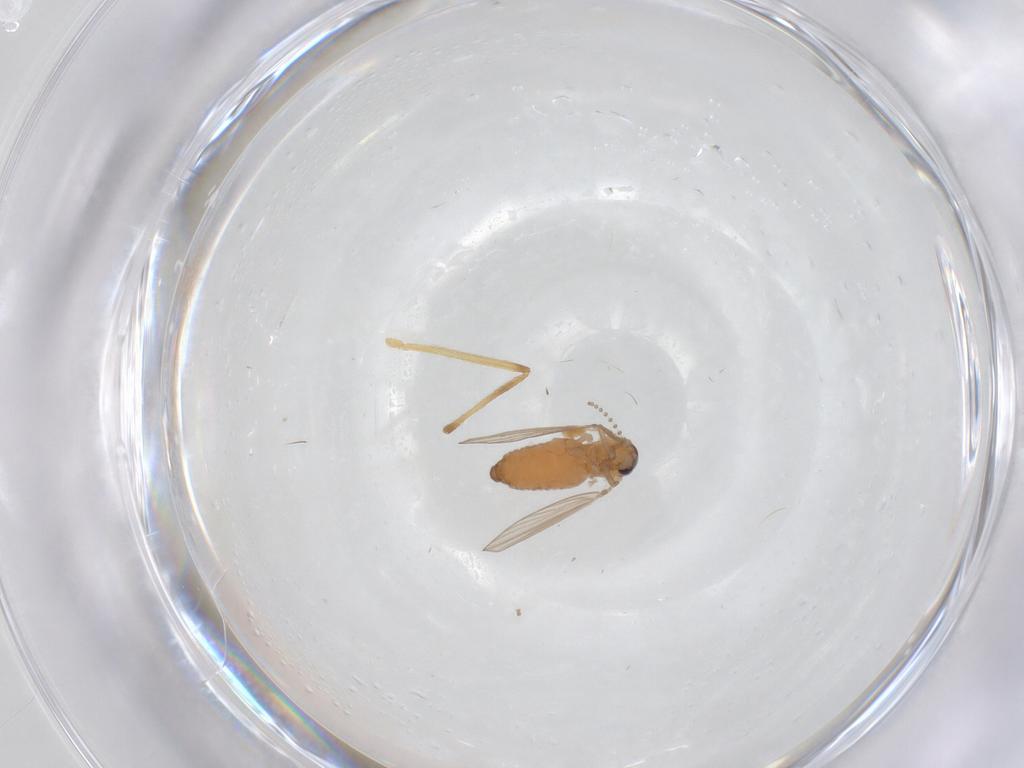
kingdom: Animalia
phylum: Arthropoda
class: Insecta
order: Diptera
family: Chironomidae
